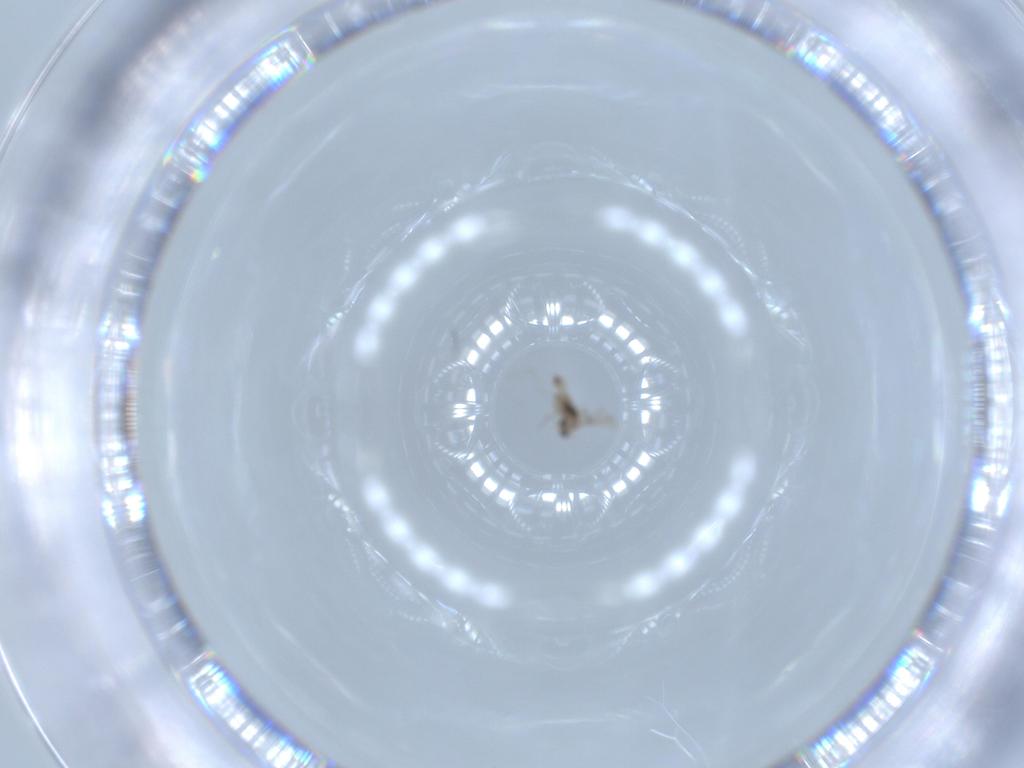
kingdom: Animalia
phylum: Arthropoda
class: Insecta
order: Diptera
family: Cecidomyiidae
